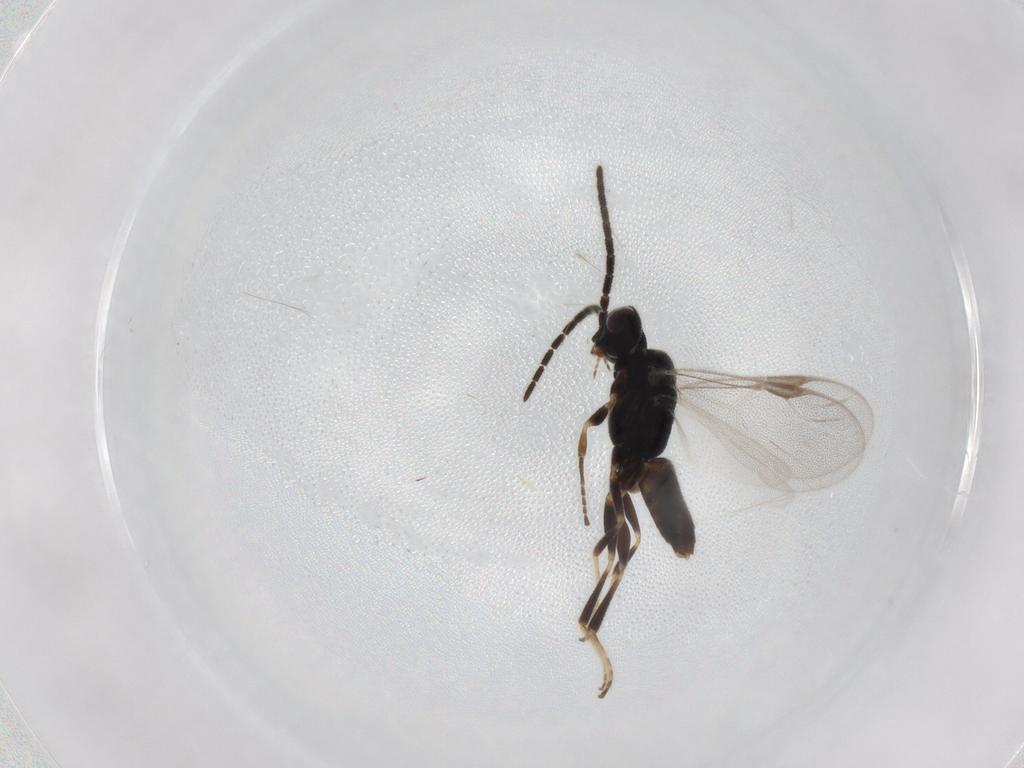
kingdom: Animalia
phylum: Arthropoda
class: Insecta
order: Hymenoptera
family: Dryinidae
